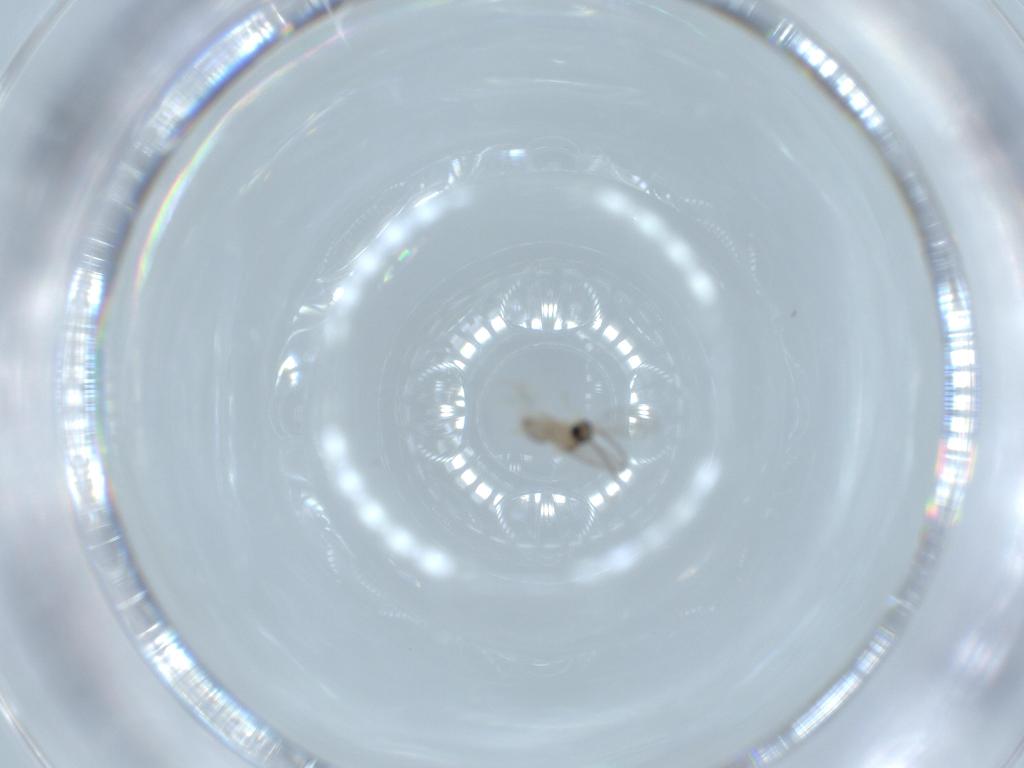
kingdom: Animalia
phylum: Arthropoda
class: Insecta
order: Diptera
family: Cecidomyiidae
